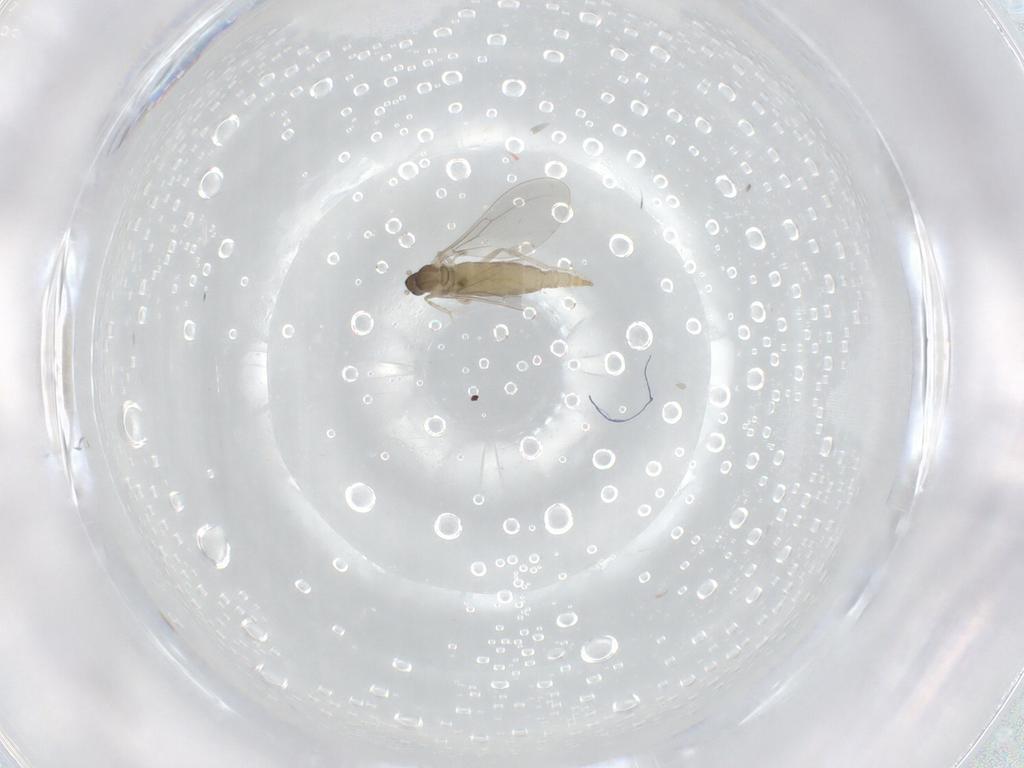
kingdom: Animalia
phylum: Arthropoda
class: Insecta
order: Diptera
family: Cecidomyiidae
